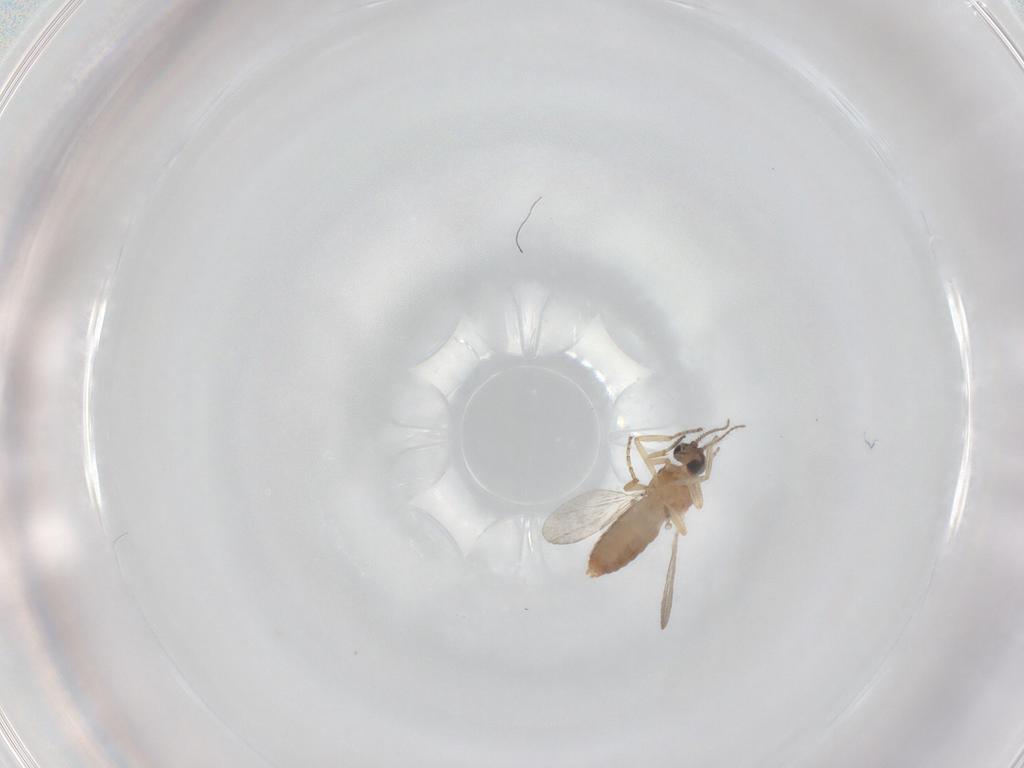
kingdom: Animalia
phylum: Arthropoda
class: Insecta
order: Diptera
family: Ceratopogonidae
